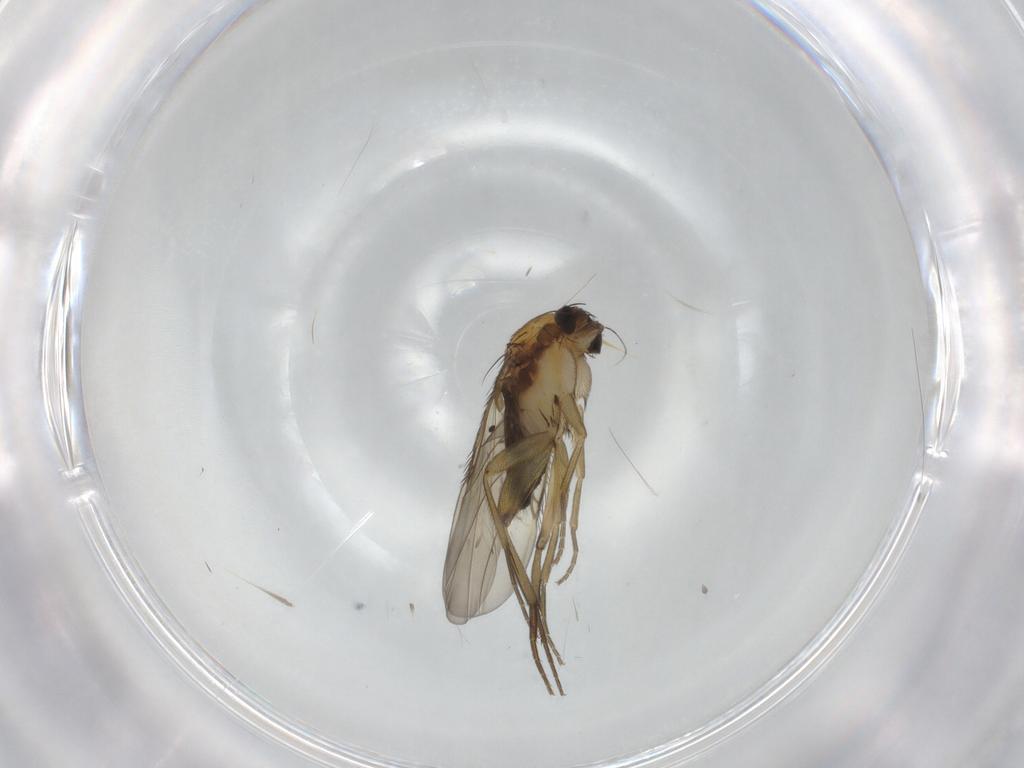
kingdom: Animalia
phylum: Arthropoda
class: Insecta
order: Diptera
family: Phoridae
